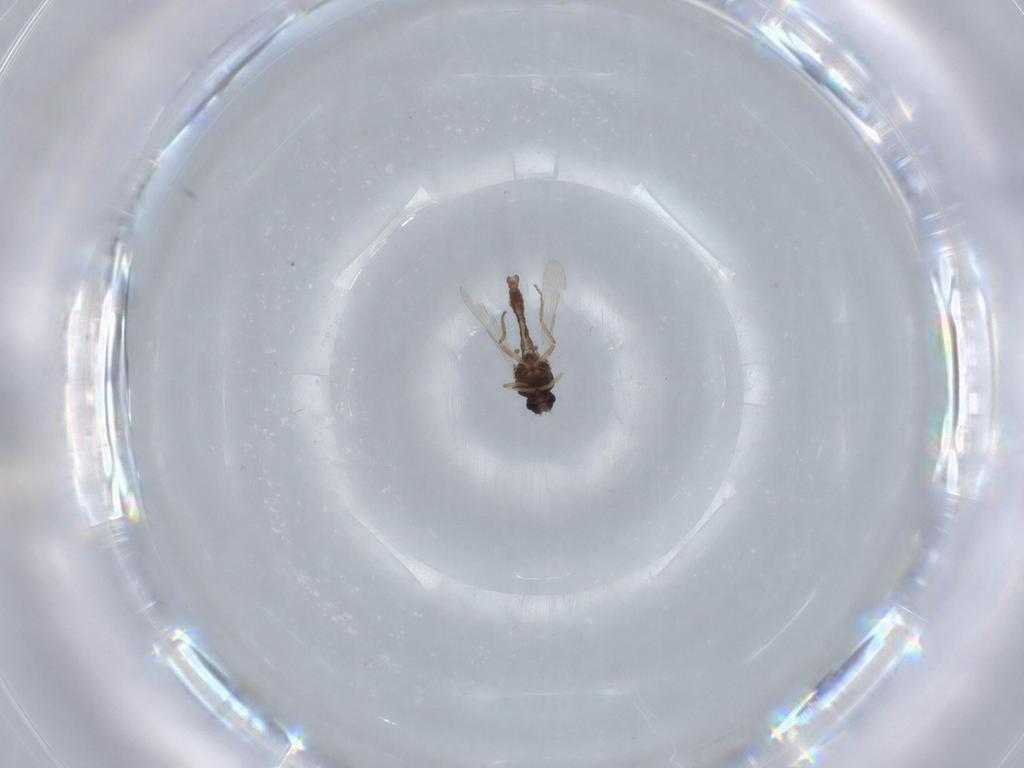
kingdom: Animalia
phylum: Arthropoda
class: Insecta
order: Diptera
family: Ceratopogonidae
